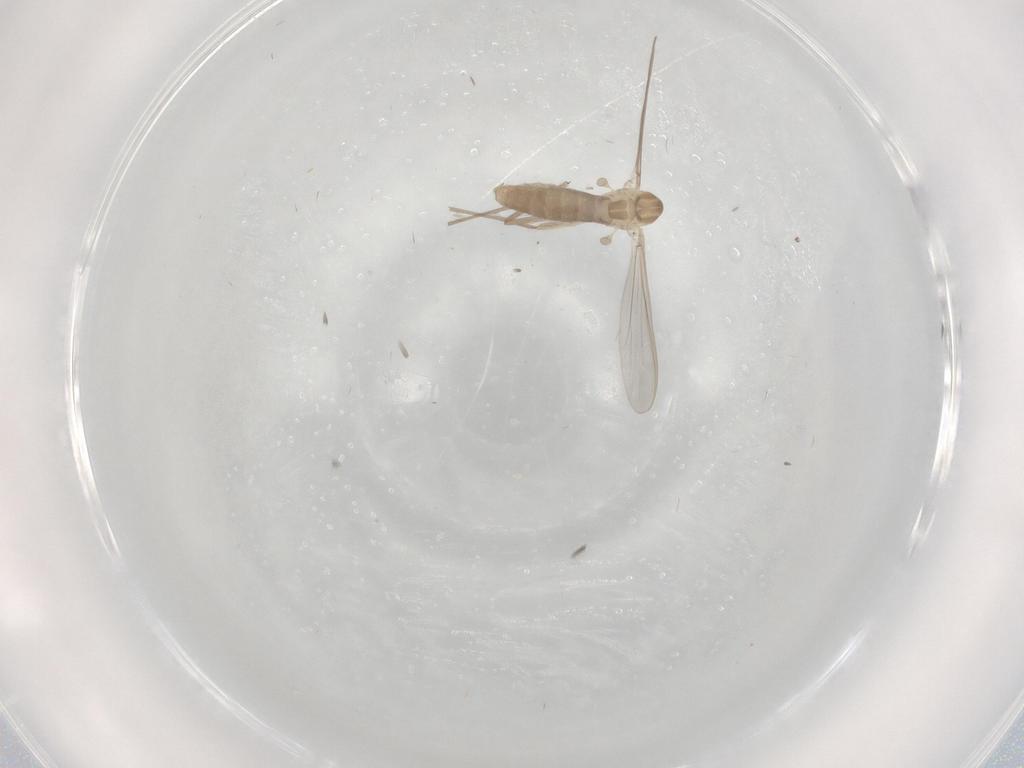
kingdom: Animalia
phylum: Arthropoda
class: Insecta
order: Diptera
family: Chironomidae
